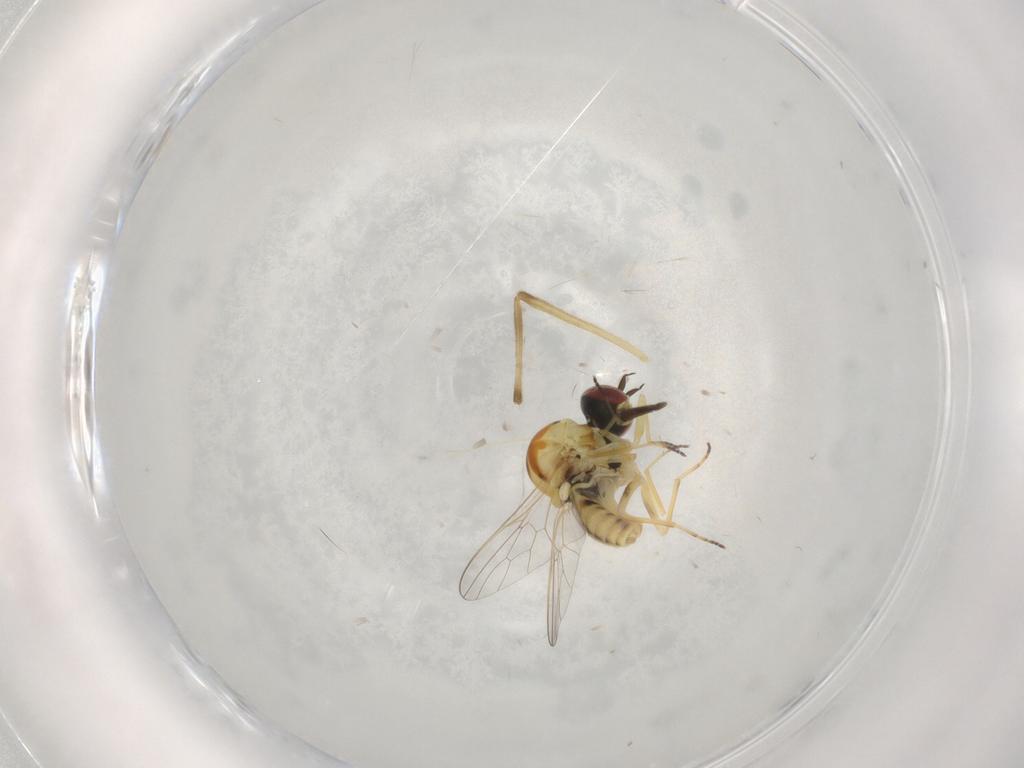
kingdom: Animalia
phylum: Arthropoda
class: Insecta
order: Diptera
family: Bombyliidae
